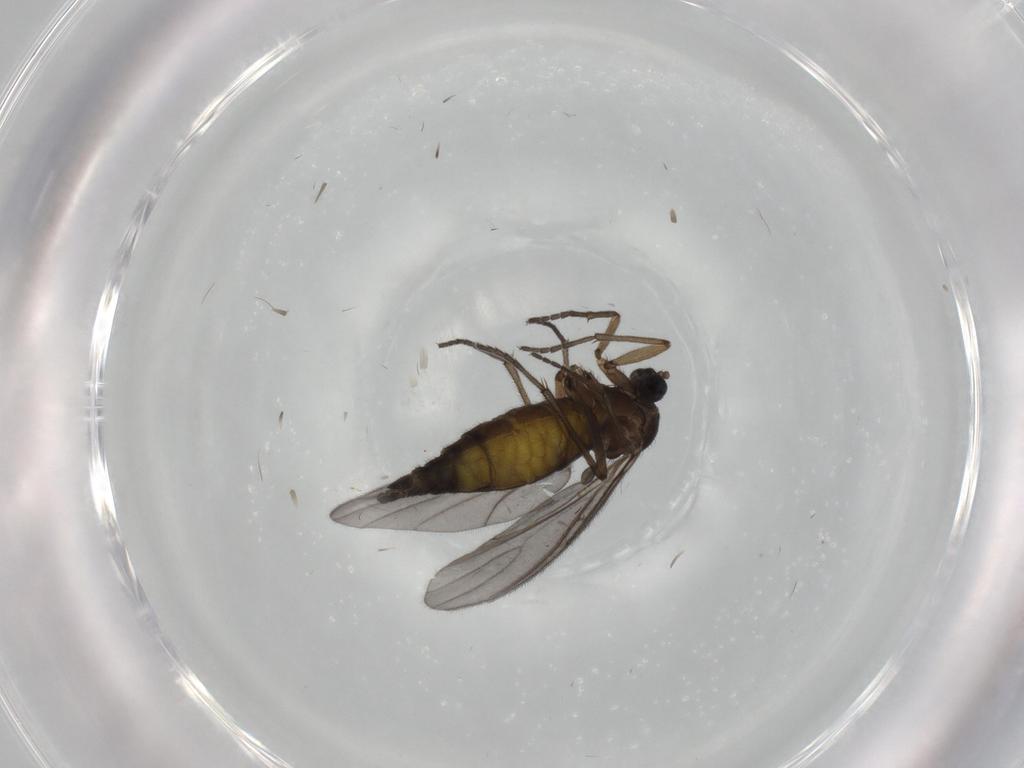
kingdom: Animalia
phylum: Arthropoda
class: Insecta
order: Diptera
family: Sciaridae
